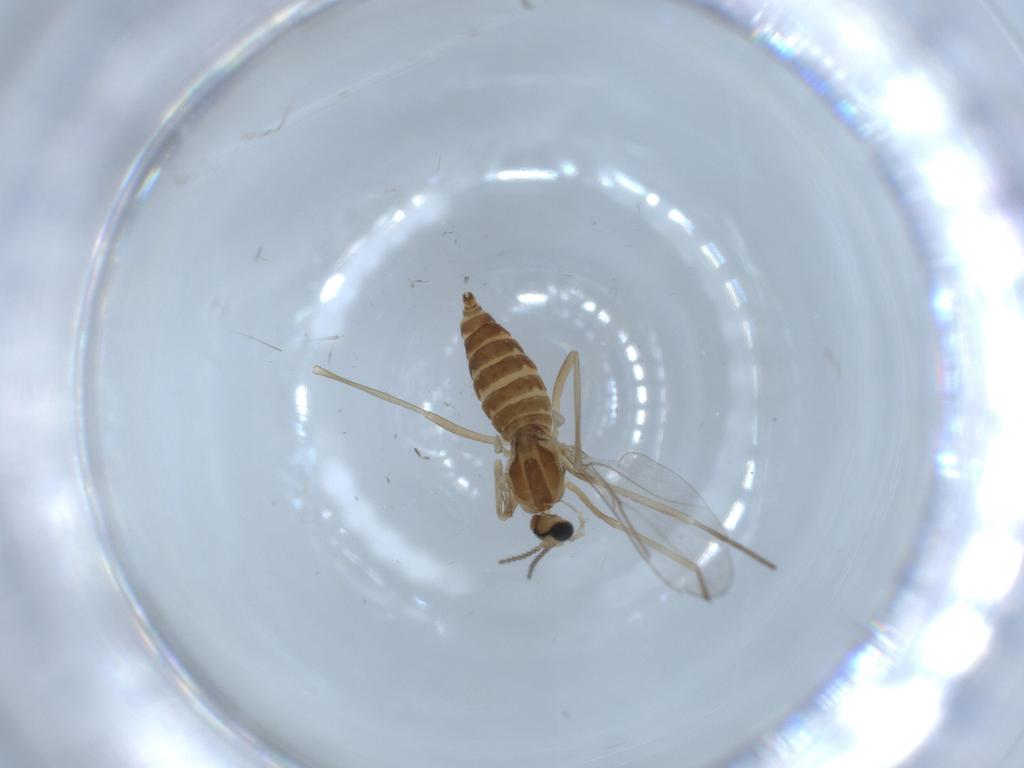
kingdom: Animalia
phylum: Arthropoda
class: Insecta
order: Diptera
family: Cecidomyiidae
